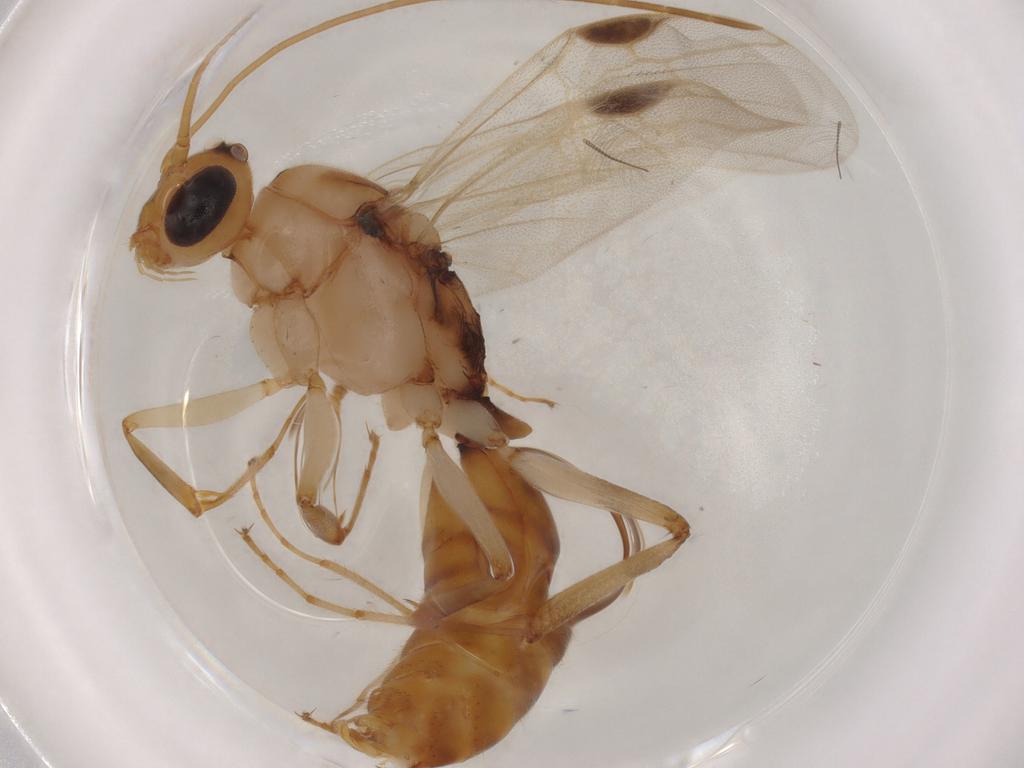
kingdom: Animalia
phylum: Arthropoda
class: Insecta
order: Hymenoptera
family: Formicidae
